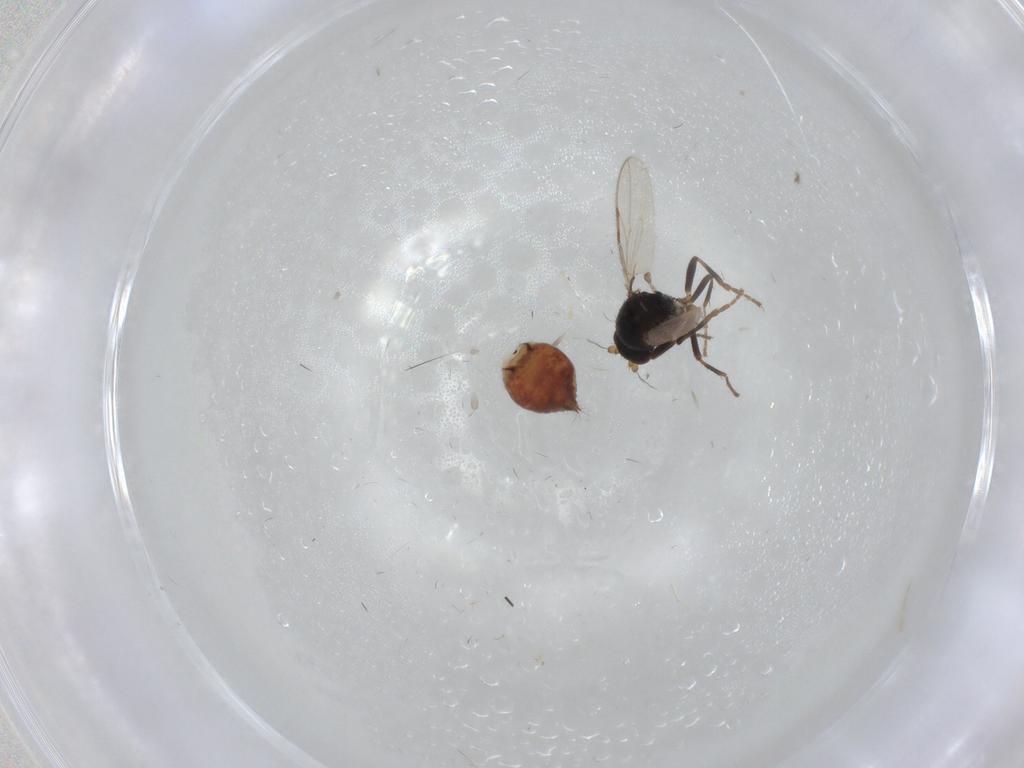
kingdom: Animalia
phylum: Arthropoda
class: Insecta
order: Diptera
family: Sphaeroceridae
